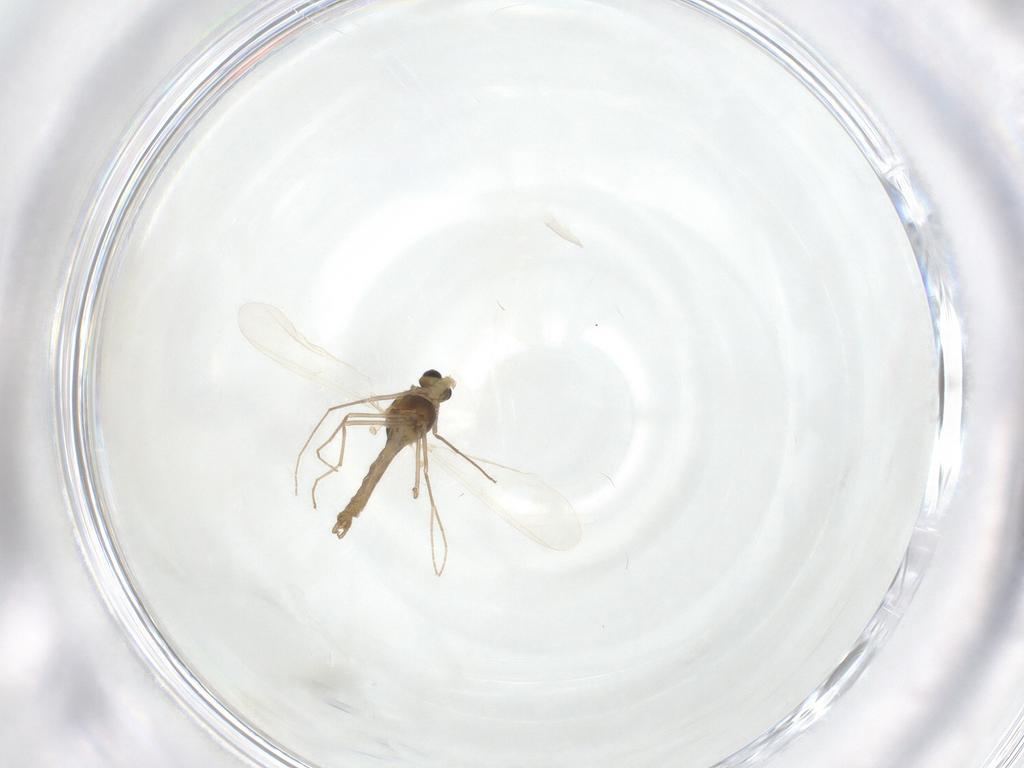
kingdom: Animalia
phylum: Arthropoda
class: Insecta
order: Diptera
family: Chironomidae
